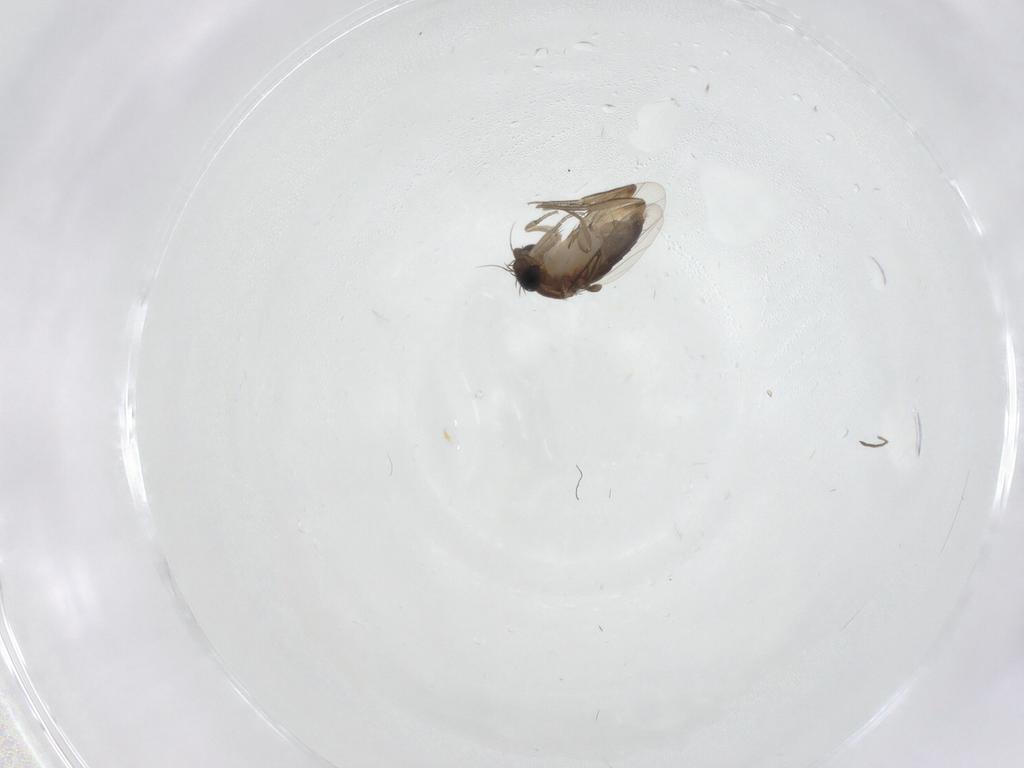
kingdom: Animalia
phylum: Arthropoda
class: Insecta
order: Diptera
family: Phoridae
